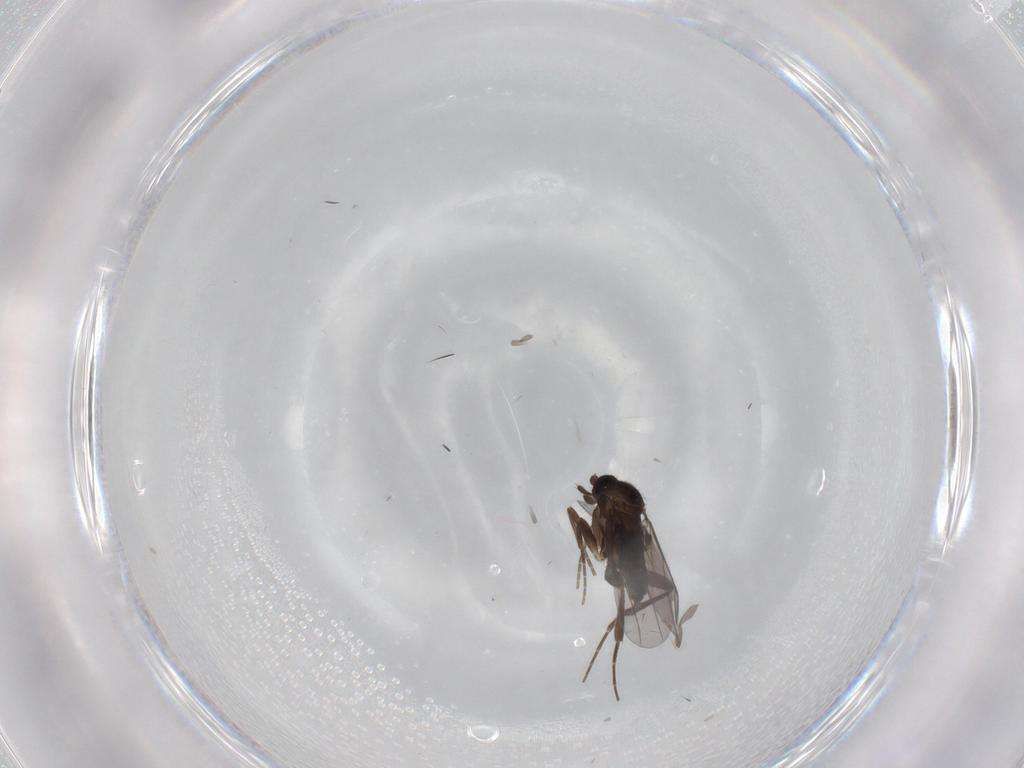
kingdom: Animalia
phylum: Arthropoda
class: Insecta
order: Diptera
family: Cecidomyiidae
